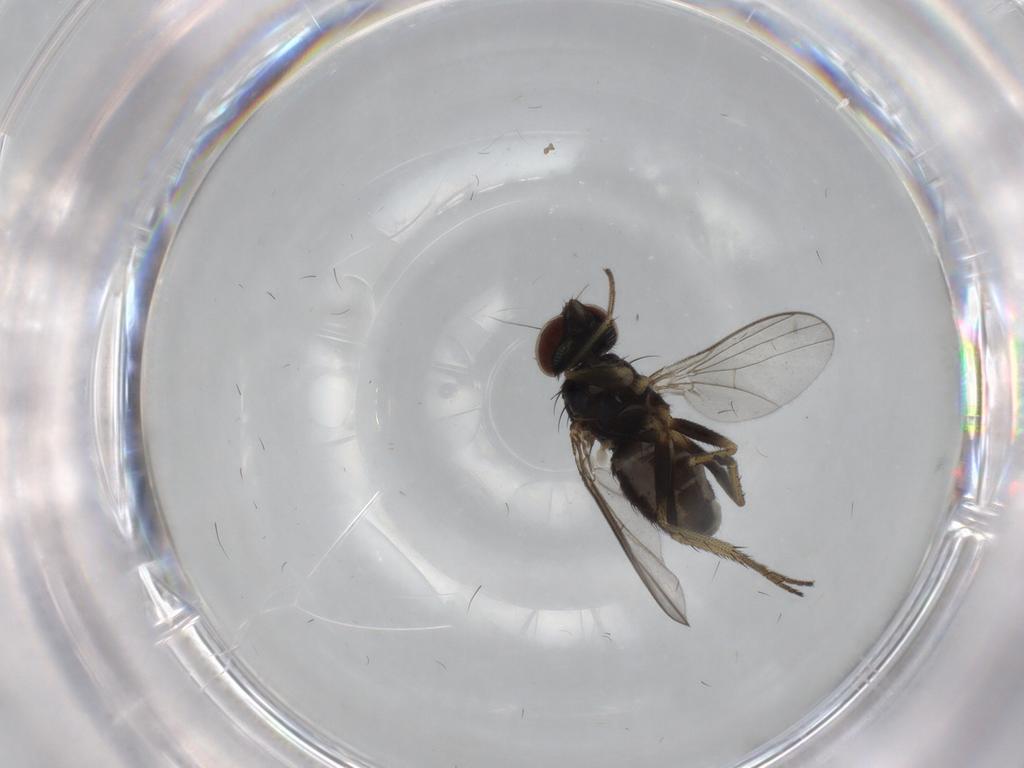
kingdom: Animalia
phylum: Arthropoda
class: Insecta
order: Diptera
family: Dolichopodidae
